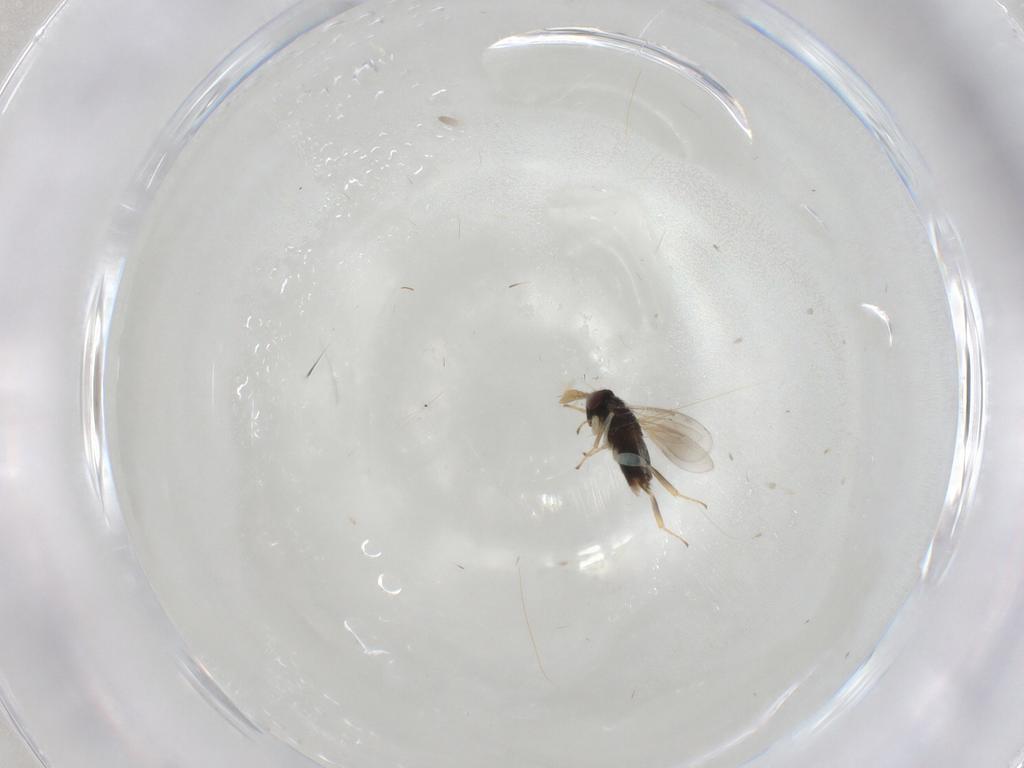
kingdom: Animalia
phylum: Arthropoda
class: Insecta
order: Hymenoptera
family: Aphelinidae
